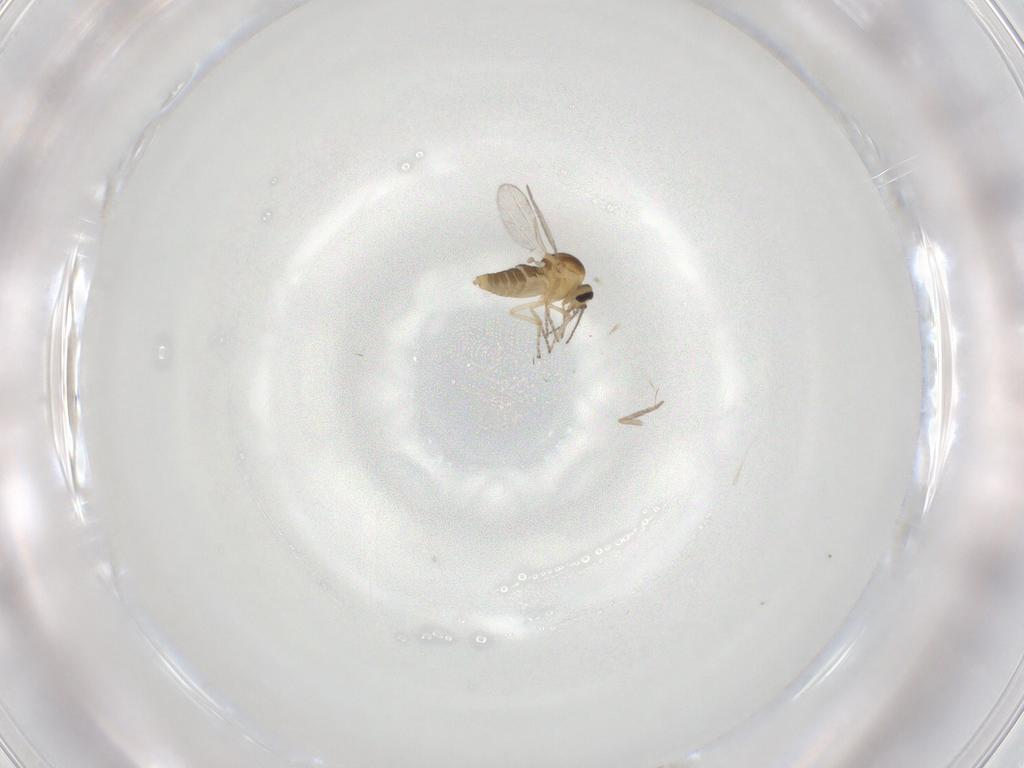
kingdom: Animalia
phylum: Arthropoda
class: Insecta
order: Diptera
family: Ceratopogonidae
